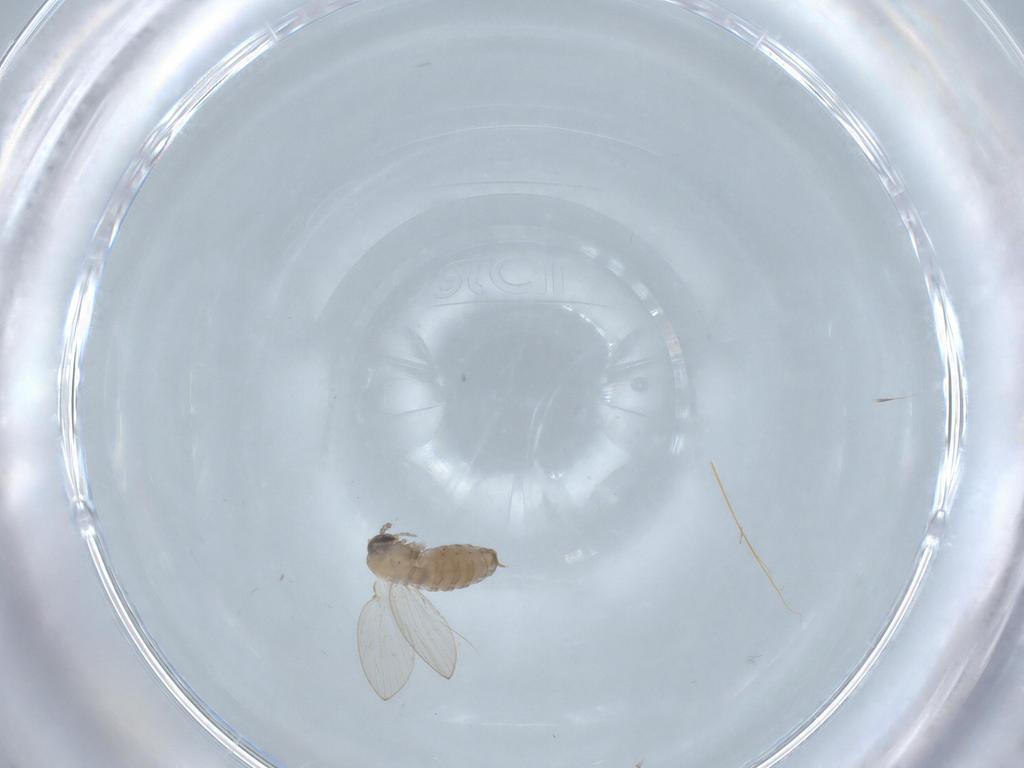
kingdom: Animalia
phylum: Arthropoda
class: Insecta
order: Diptera
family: Psychodidae
